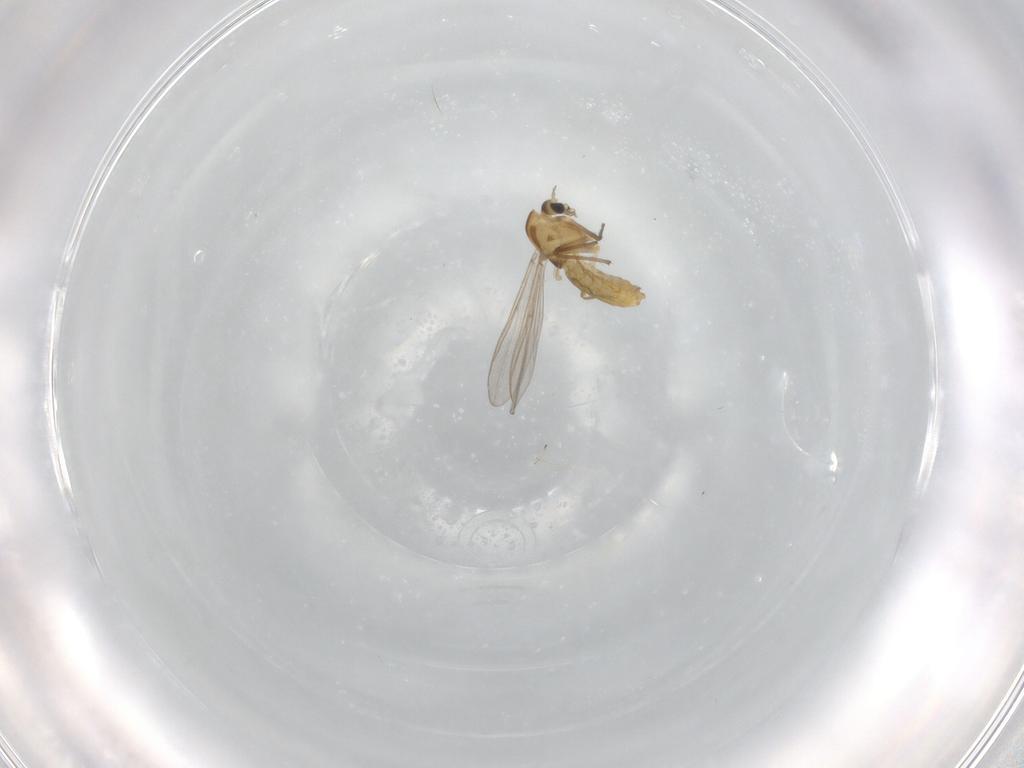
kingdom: Animalia
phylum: Arthropoda
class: Insecta
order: Diptera
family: Chironomidae
